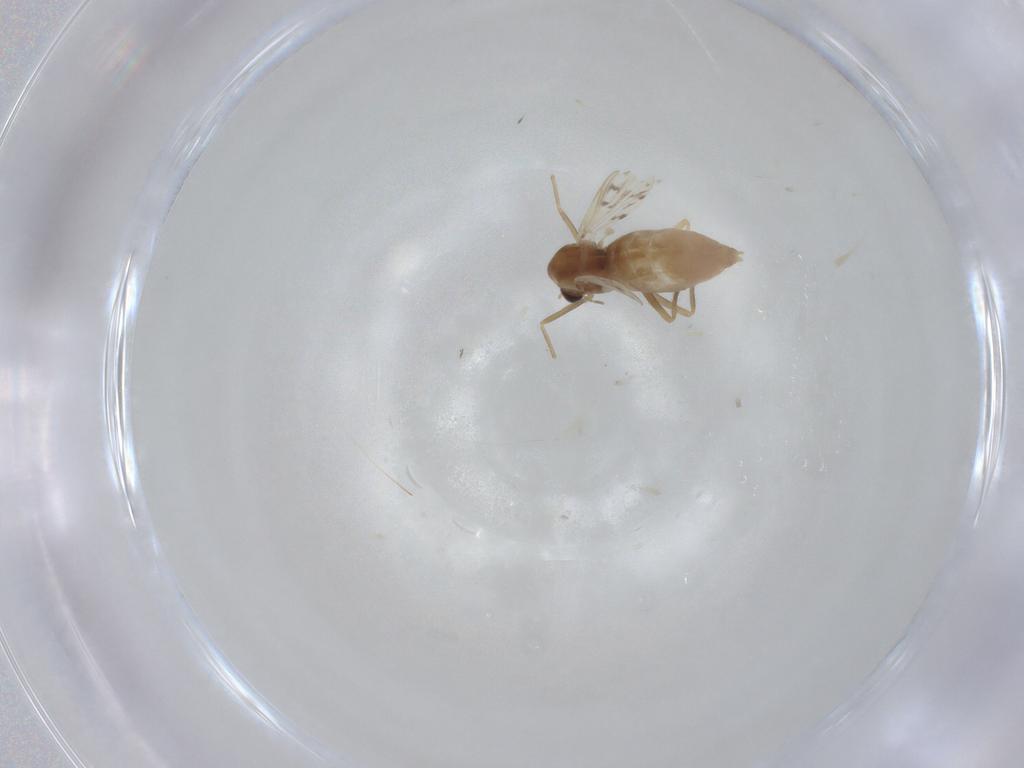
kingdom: Animalia
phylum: Arthropoda
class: Insecta
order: Diptera
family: Chironomidae
